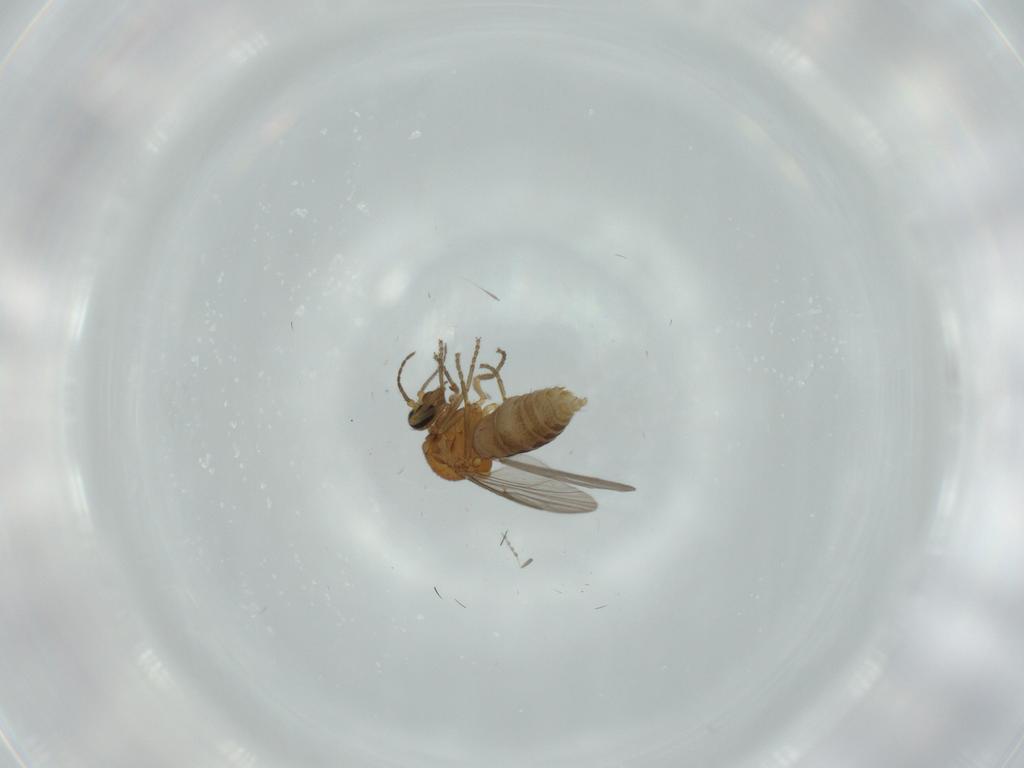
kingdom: Animalia
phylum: Arthropoda
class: Insecta
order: Diptera
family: Ceratopogonidae
